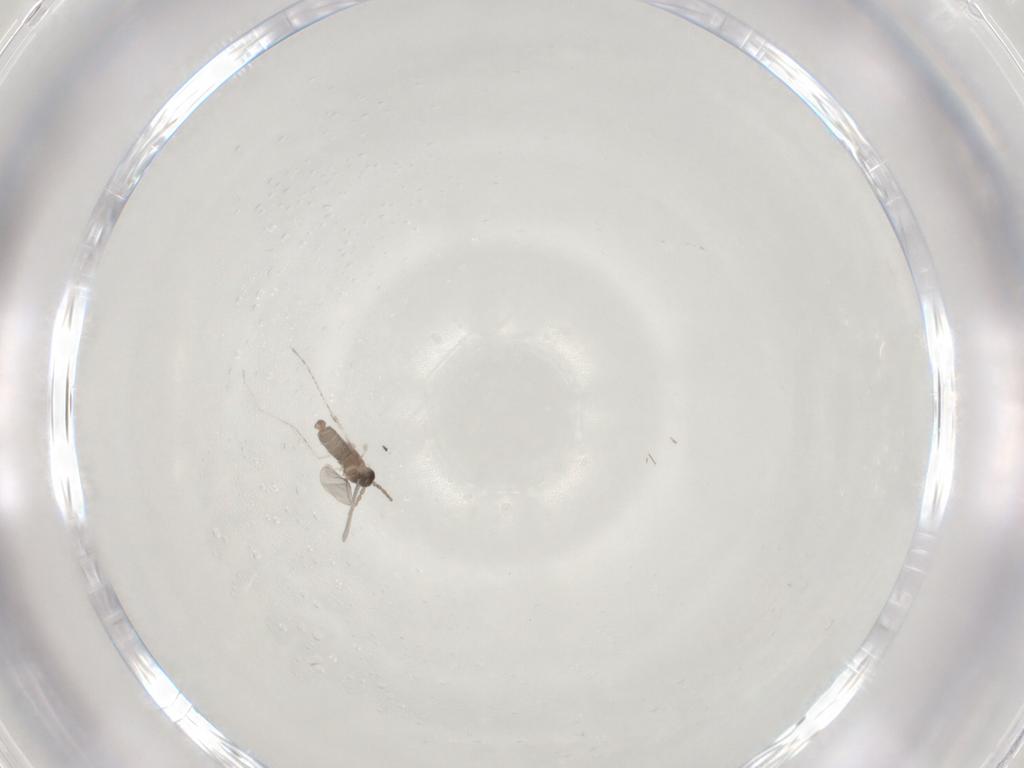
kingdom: Animalia
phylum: Arthropoda
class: Insecta
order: Diptera
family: Cecidomyiidae
